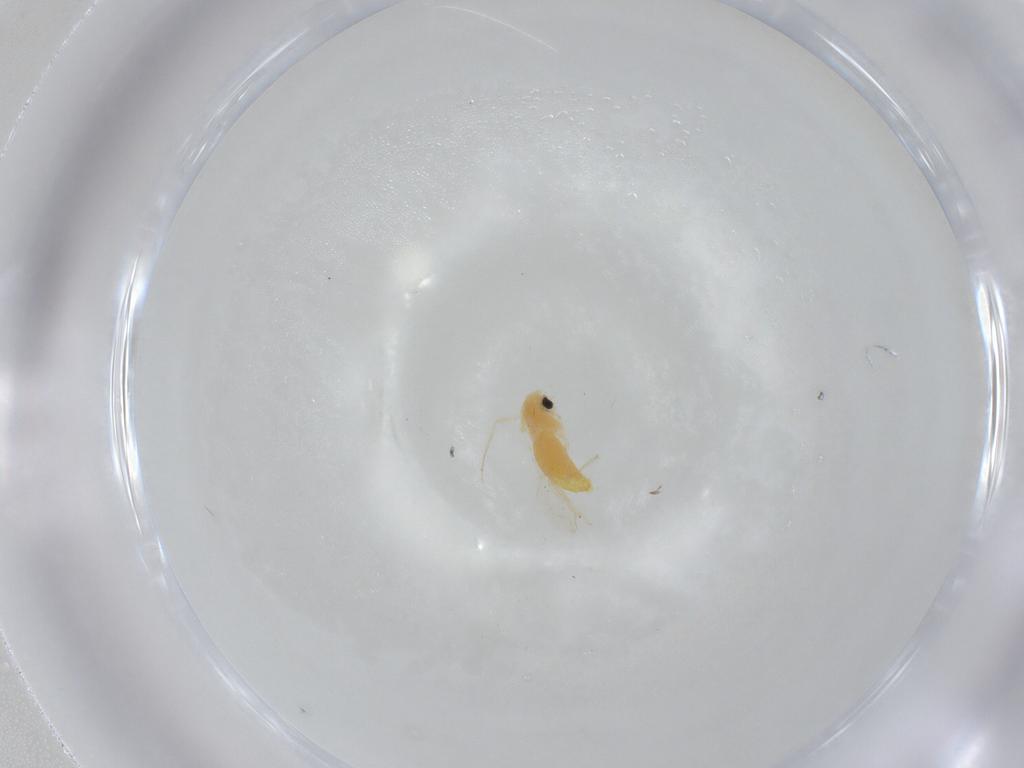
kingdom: Animalia
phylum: Arthropoda
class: Insecta
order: Diptera
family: Chironomidae
